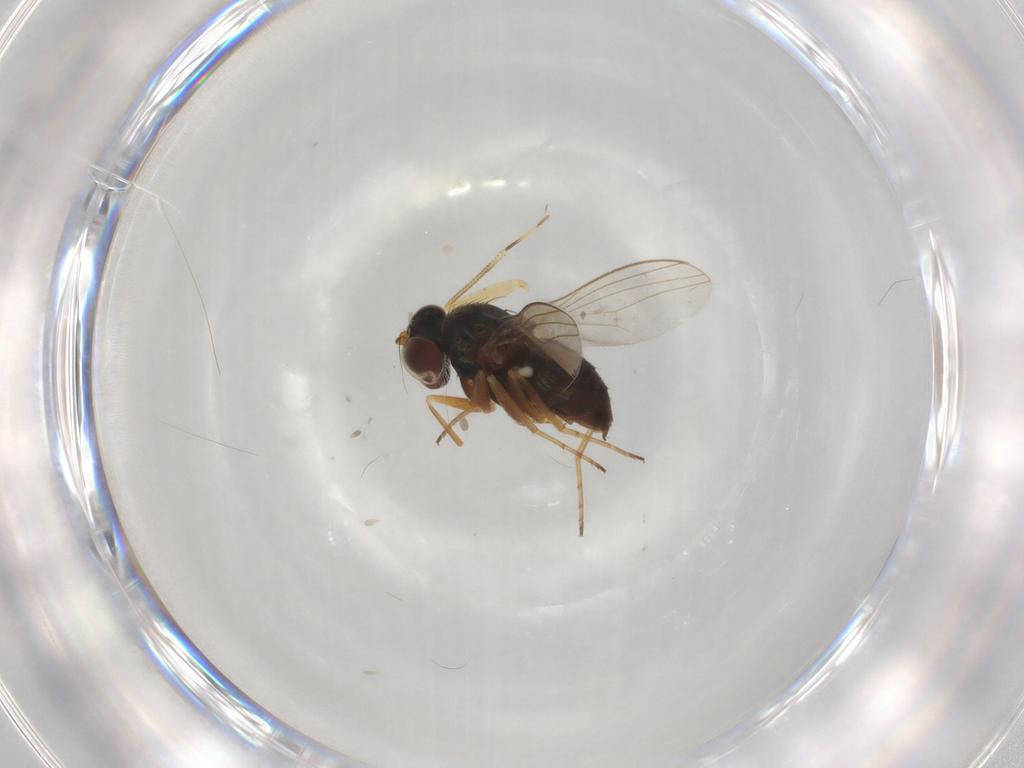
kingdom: Animalia
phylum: Arthropoda
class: Insecta
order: Diptera
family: Dolichopodidae
